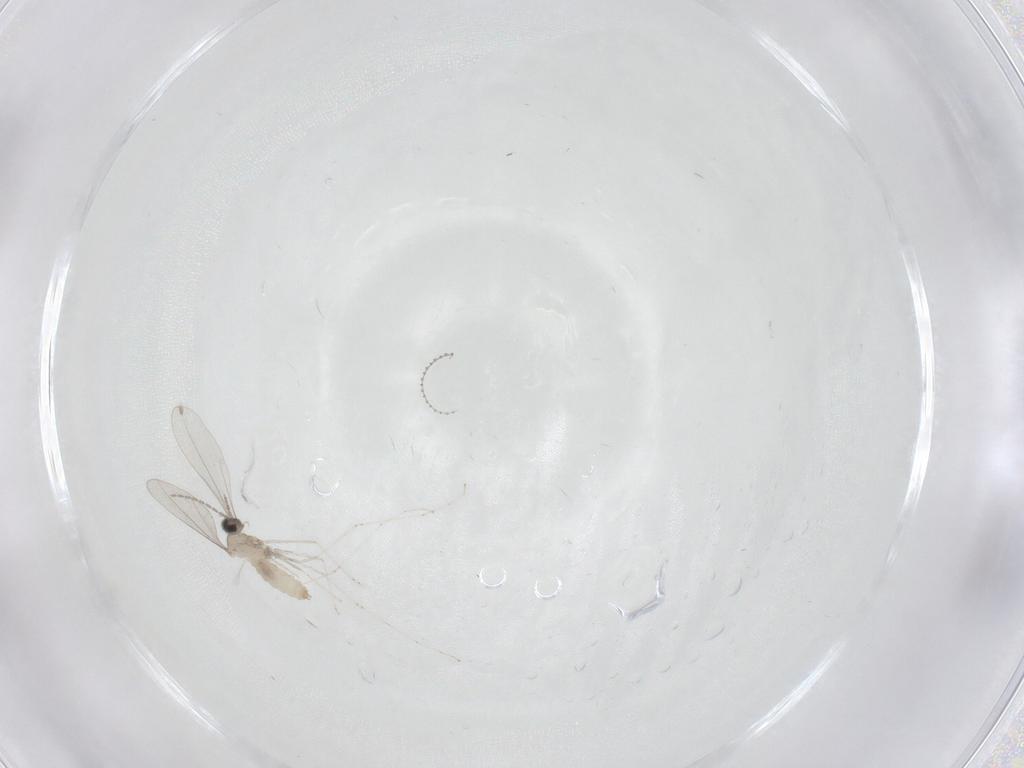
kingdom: Animalia
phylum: Arthropoda
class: Insecta
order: Diptera
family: Cecidomyiidae
